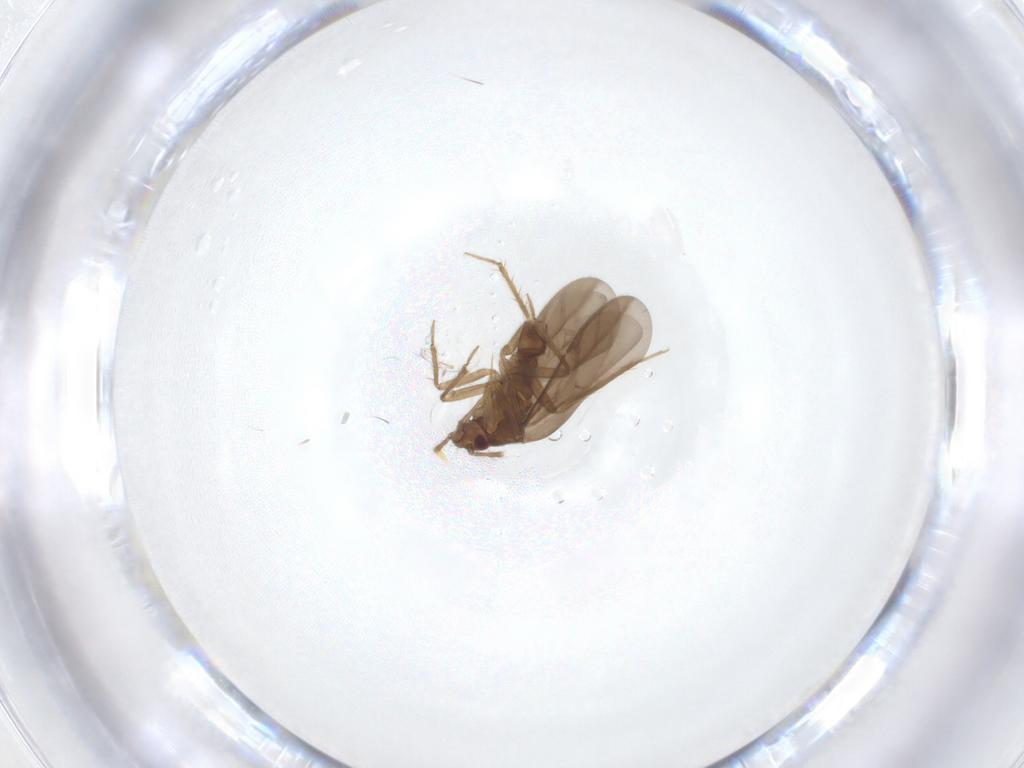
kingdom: Animalia
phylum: Arthropoda
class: Insecta
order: Hemiptera
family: Ceratocombidae
